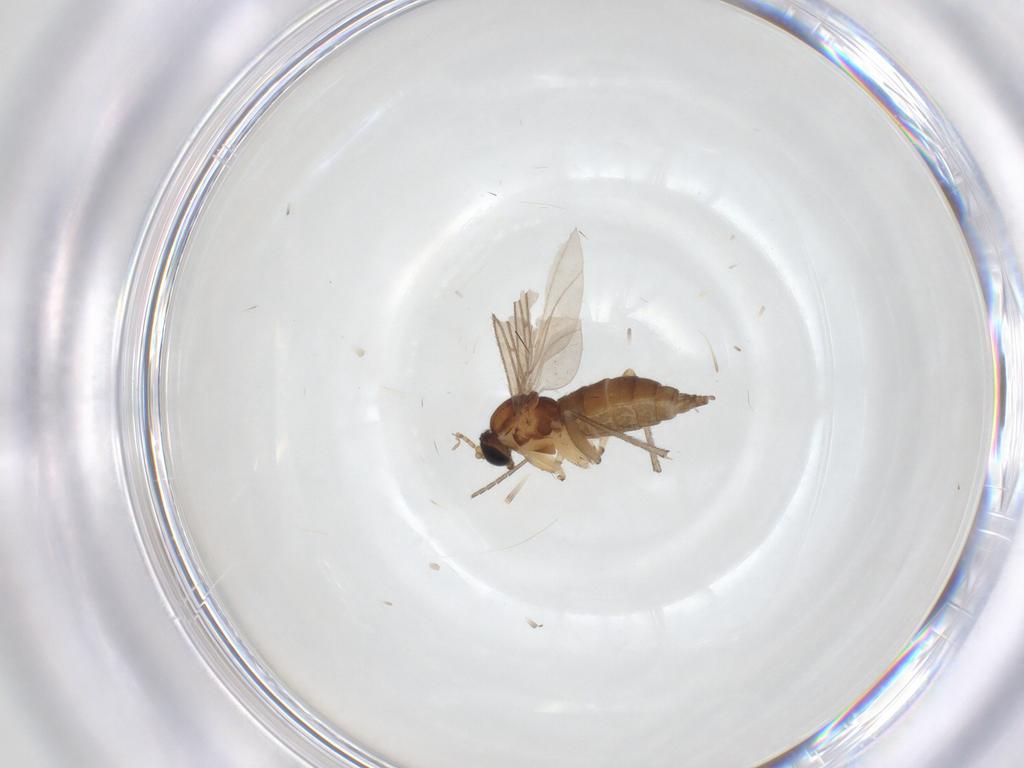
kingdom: Animalia
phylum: Arthropoda
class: Insecta
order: Diptera
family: Sciaridae
